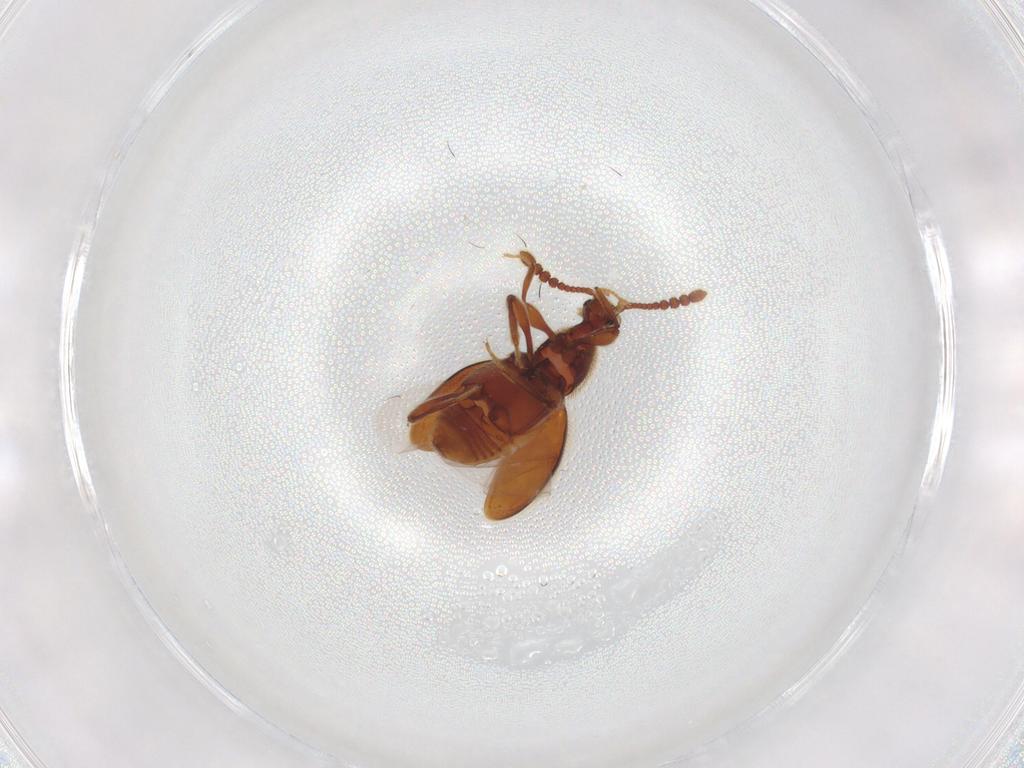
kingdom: Animalia
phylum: Arthropoda
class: Insecta
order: Coleoptera
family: Staphylinidae
